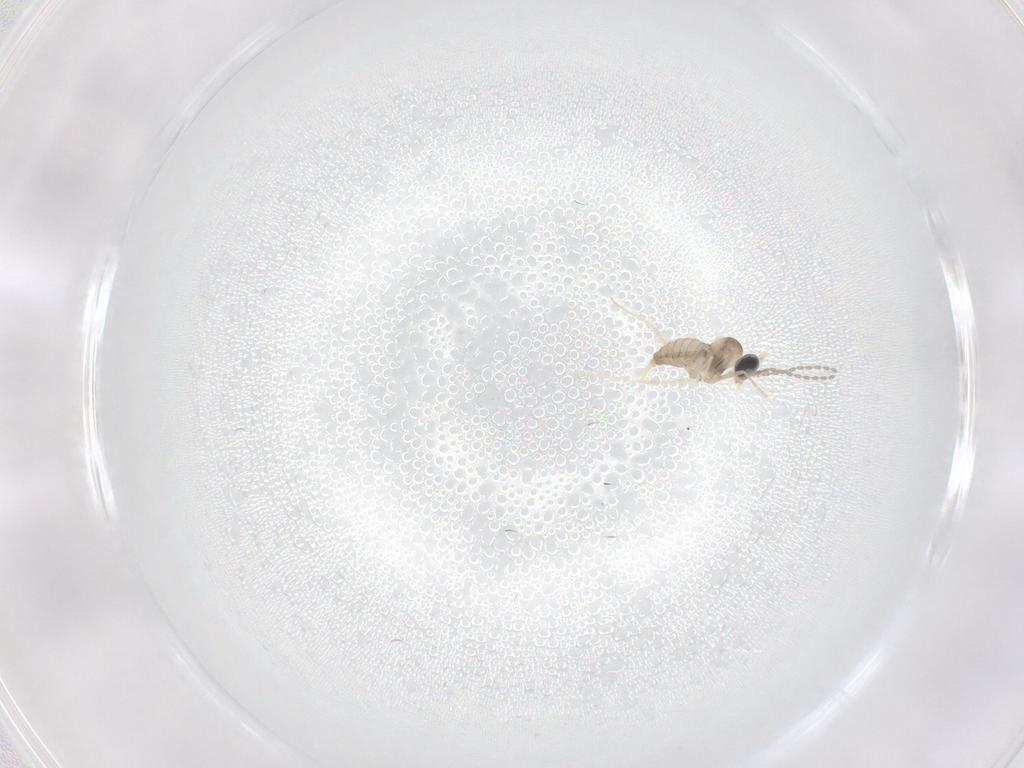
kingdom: Animalia
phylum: Arthropoda
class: Insecta
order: Diptera
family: Cecidomyiidae
